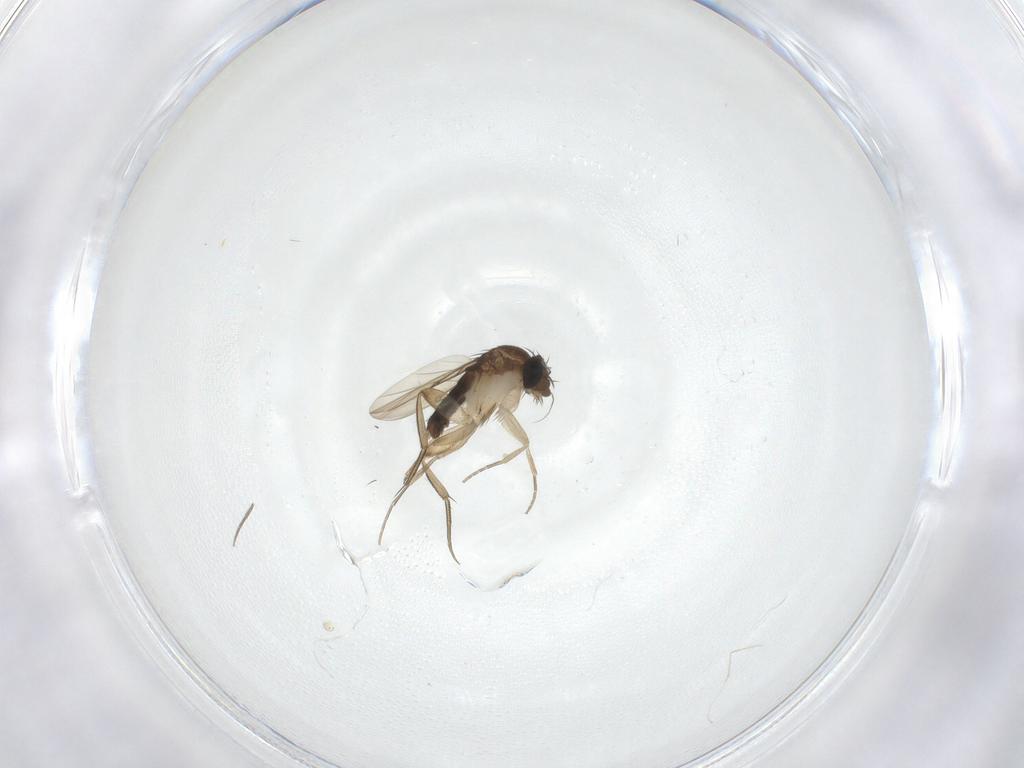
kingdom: Animalia
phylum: Arthropoda
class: Insecta
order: Diptera
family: Phoridae
